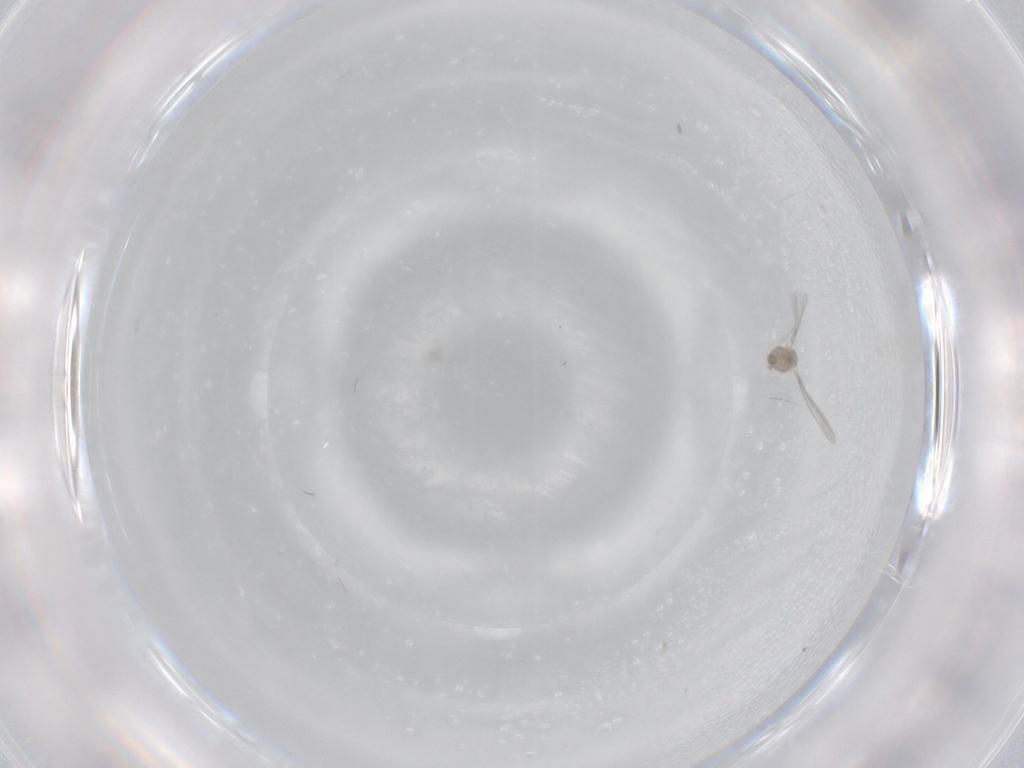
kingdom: Animalia
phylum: Arthropoda
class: Insecta
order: Diptera
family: Cecidomyiidae
